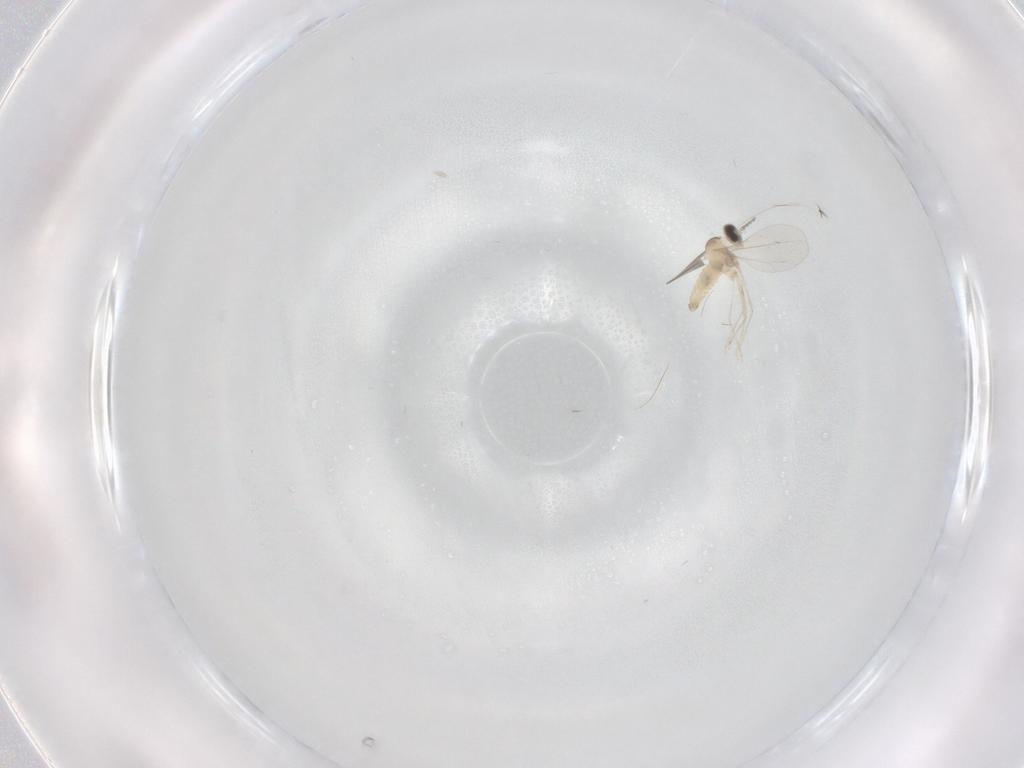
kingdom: Animalia
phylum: Arthropoda
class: Insecta
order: Diptera
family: Cecidomyiidae
